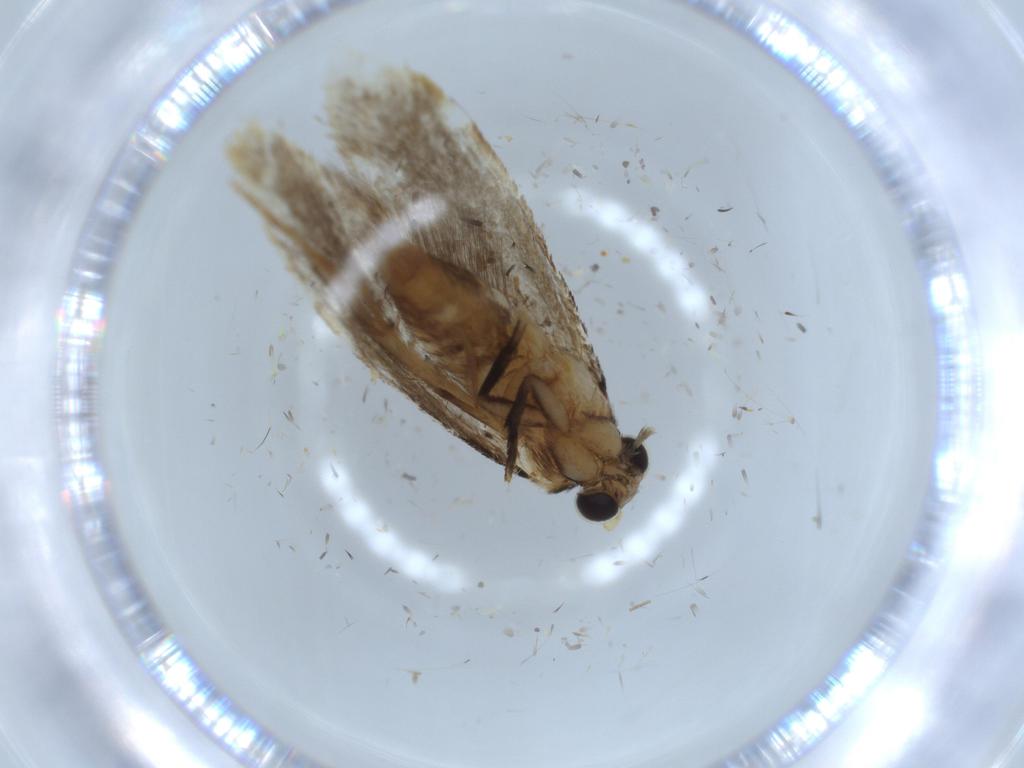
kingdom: Animalia
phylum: Arthropoda
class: Insecta
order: Lepidoptera
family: Tineidae
